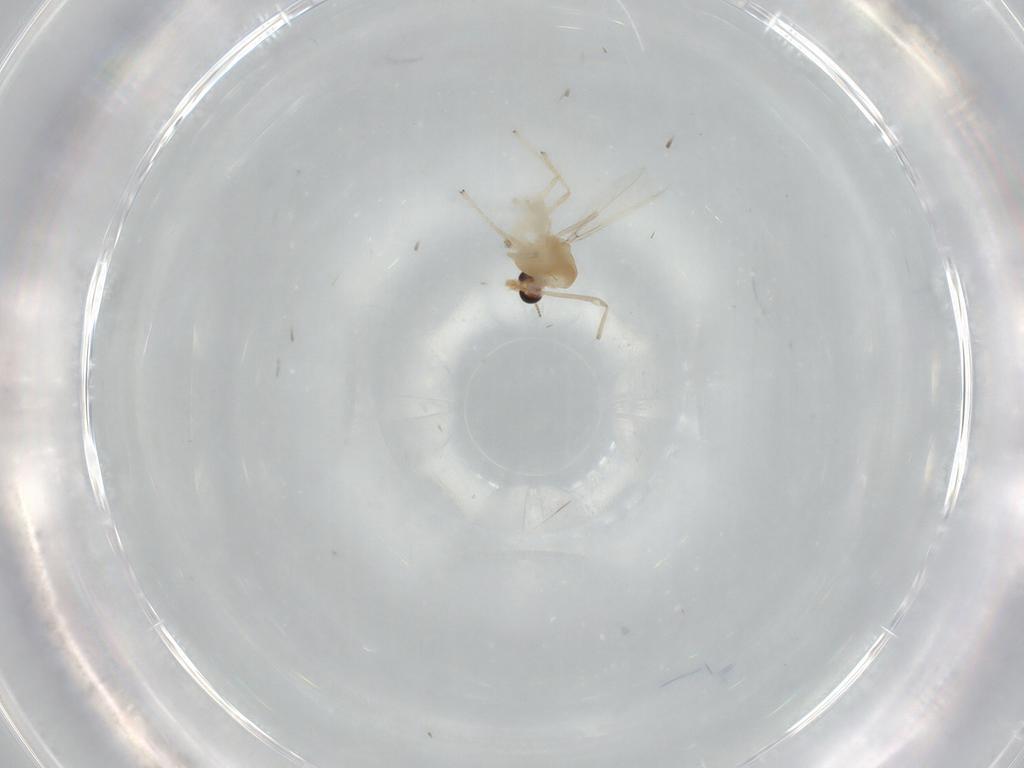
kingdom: Animalia
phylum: Arthropoda
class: Insecta
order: Diptera
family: Chironomidae
